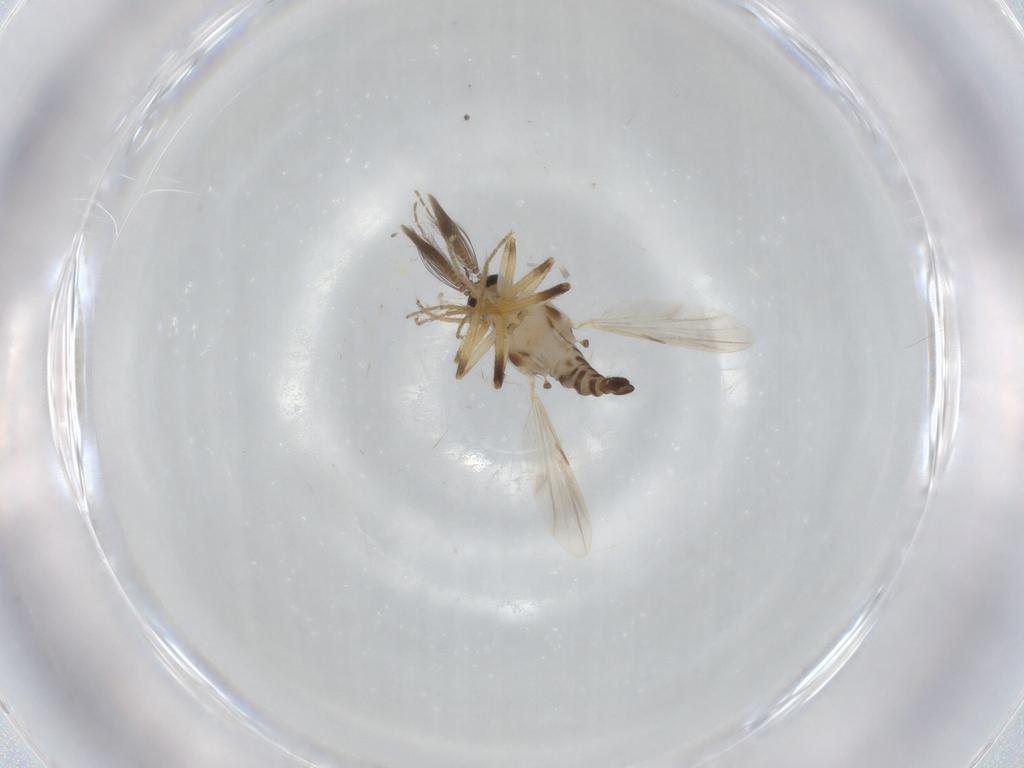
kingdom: Animalia
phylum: Arthropoda
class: Insecta
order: Diptera
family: Ceratopogonidae
